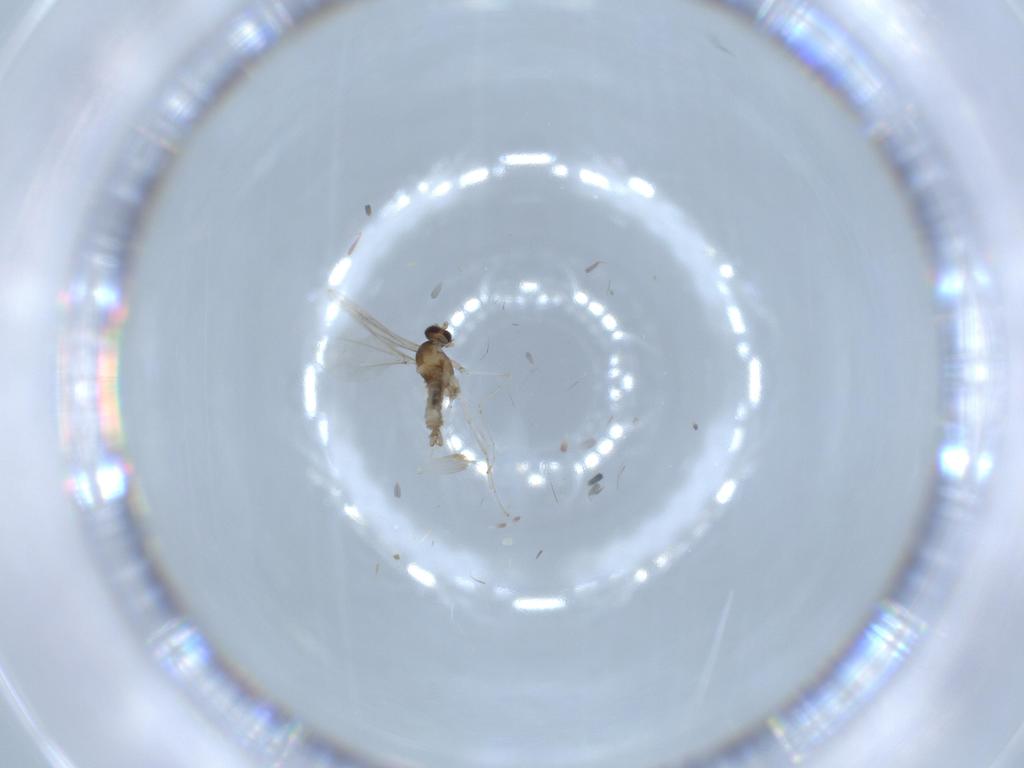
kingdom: Animalia
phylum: Arthropoda
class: Insecta
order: Diptera
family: Cecidomyiidae
